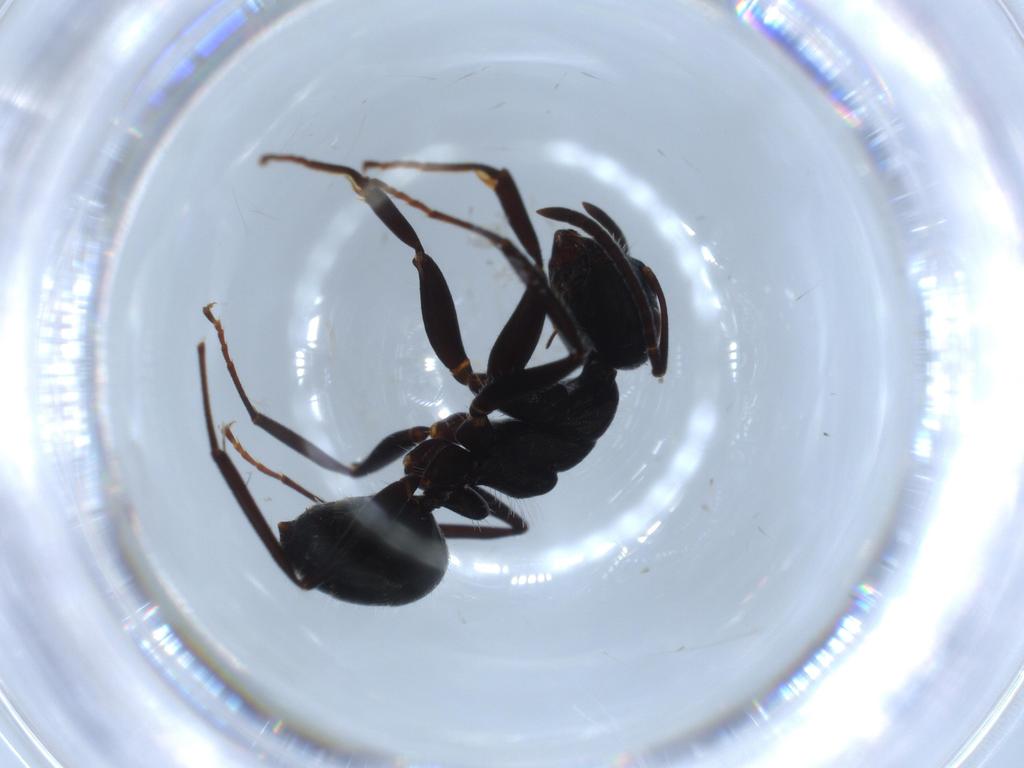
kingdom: Animalia
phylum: Arthropoda
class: Insecta
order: Hymenoptera
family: Formicidae
